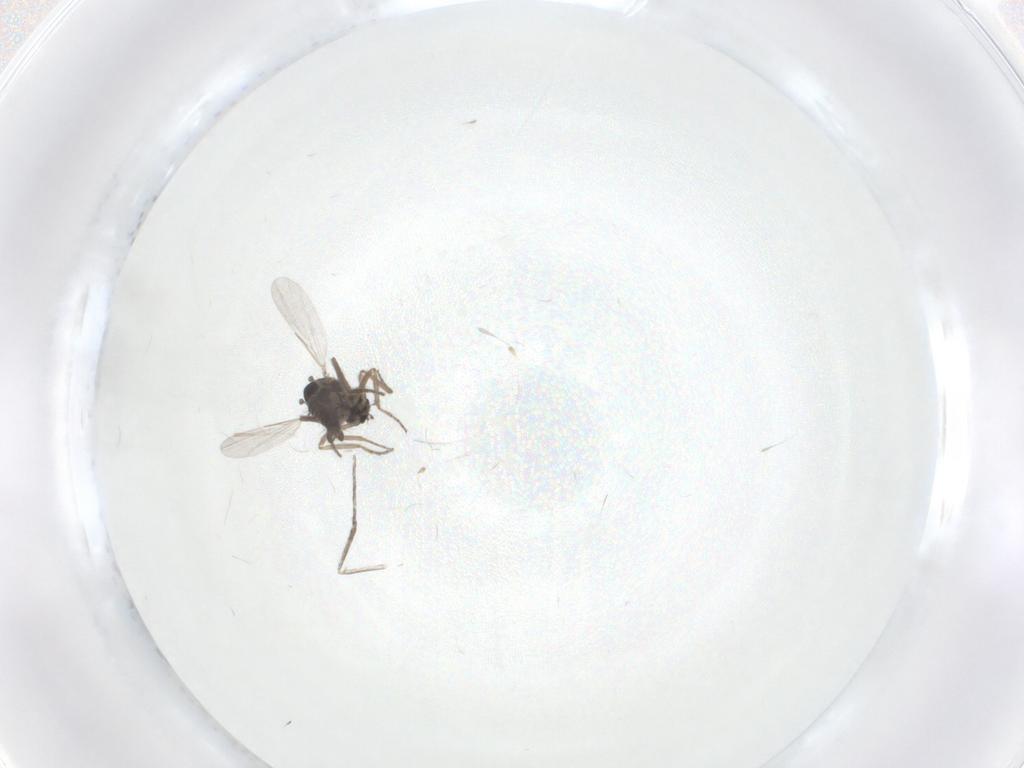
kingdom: Animalia
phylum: Arthropoda
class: Insecta
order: Diptera
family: Ceratopogonidae
